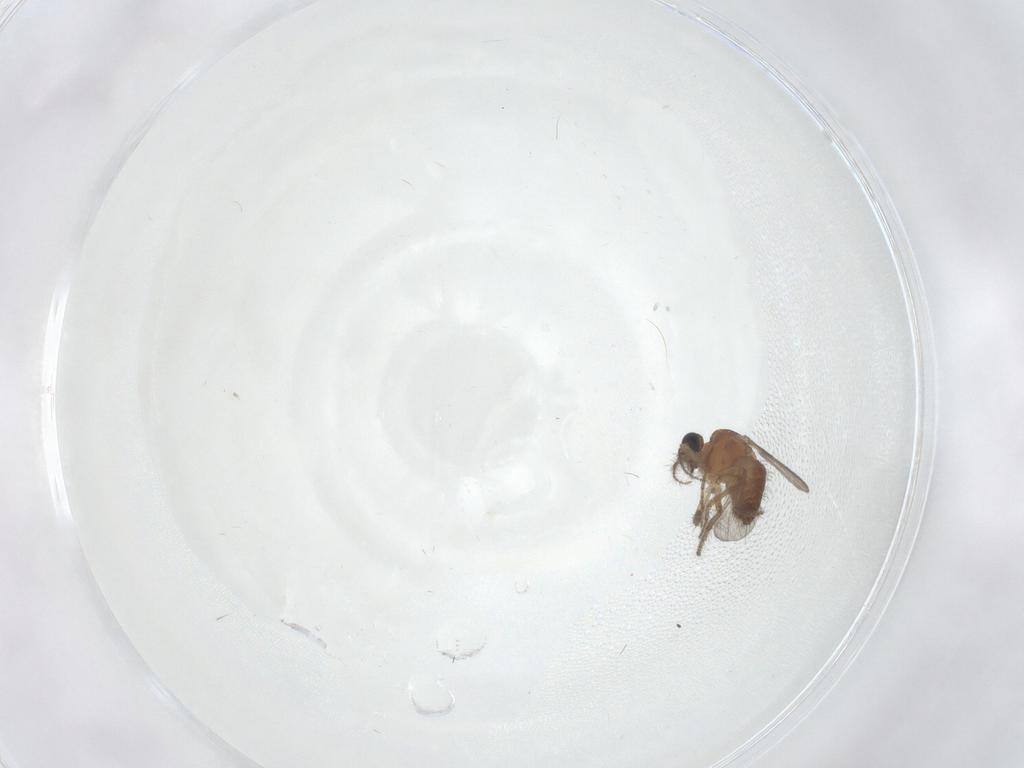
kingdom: Animalia
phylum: Arthropoda
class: Insecta
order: Diptera
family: Ceratopogonidae
